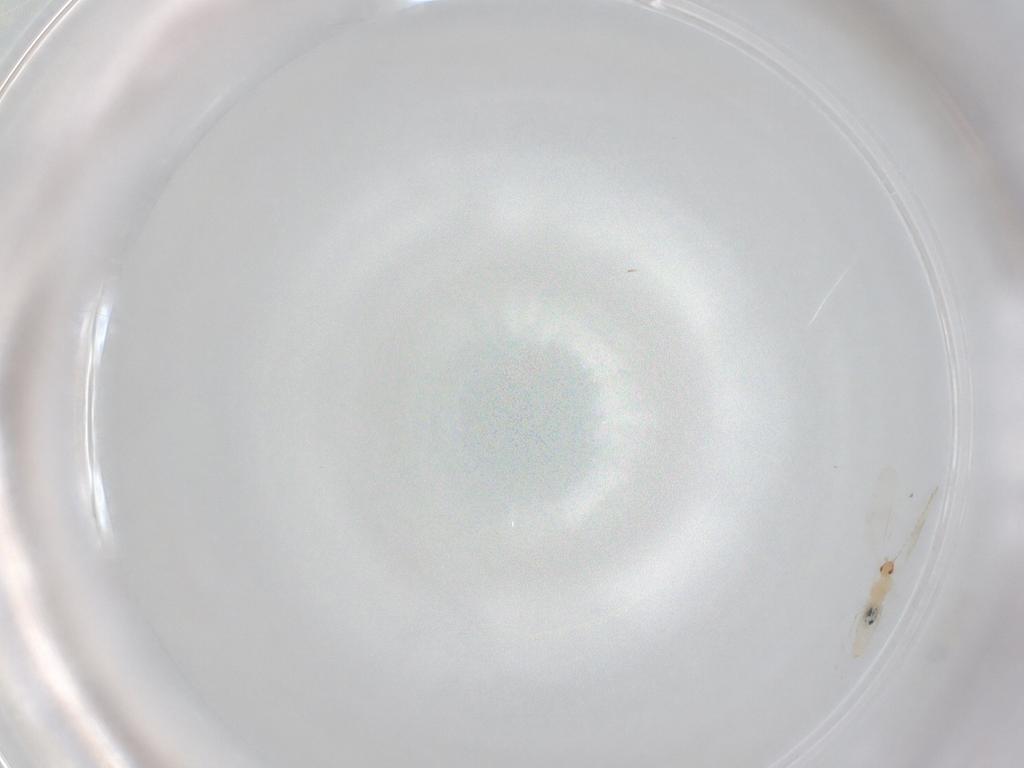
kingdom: Animalia
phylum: Arthropoda
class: Insecta
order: Diptera
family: Cecidomyiidae
